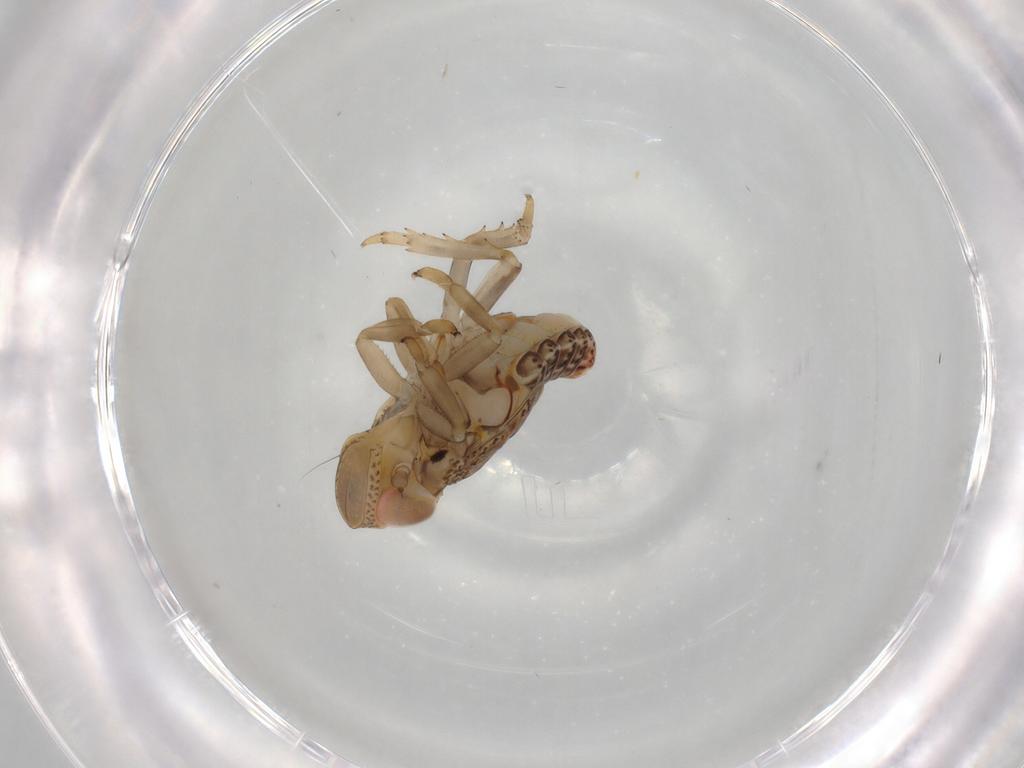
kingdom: Animalia
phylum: Arthropoda
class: Insecta
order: Hemiptera
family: Issidae
